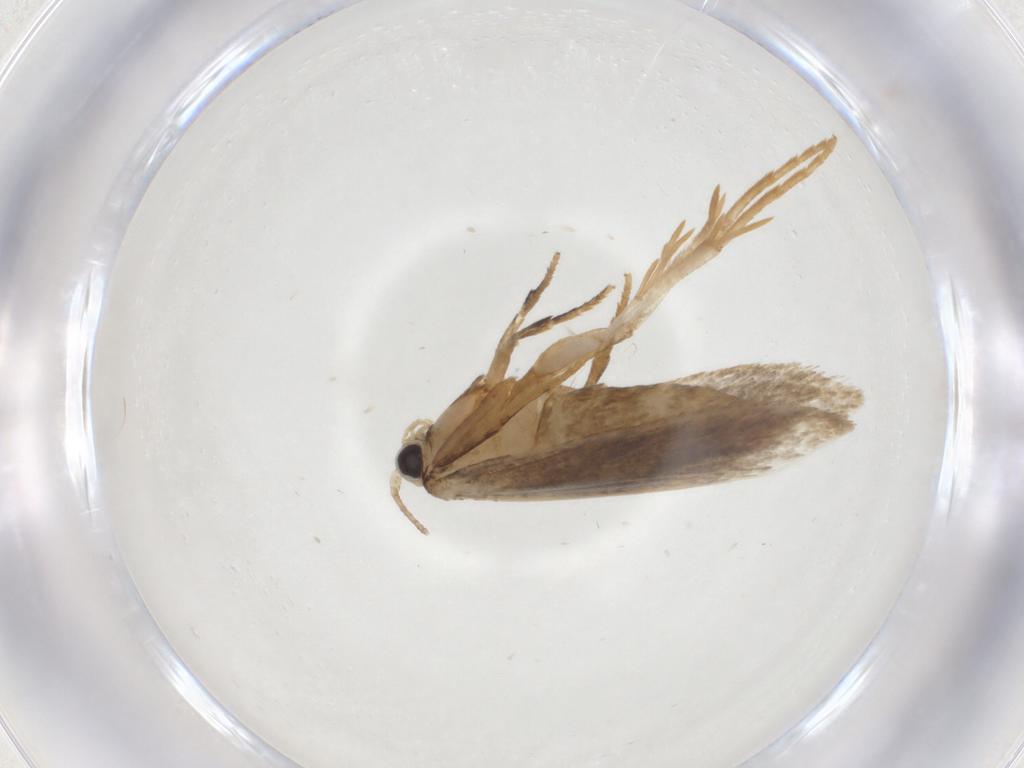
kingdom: Animalia
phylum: Arthropoda
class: Insecta
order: Lepidoptera
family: Tineidae
